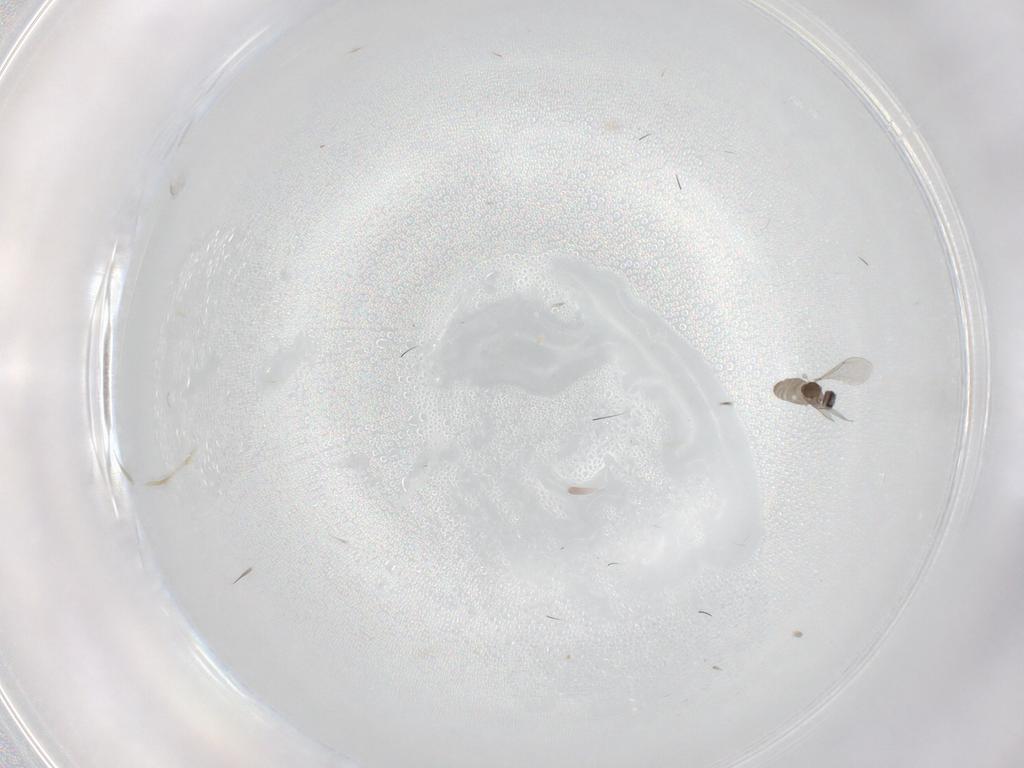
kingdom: Animalia
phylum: Arthropoda
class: Insecta
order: Diptera
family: Cecidomyiidae
